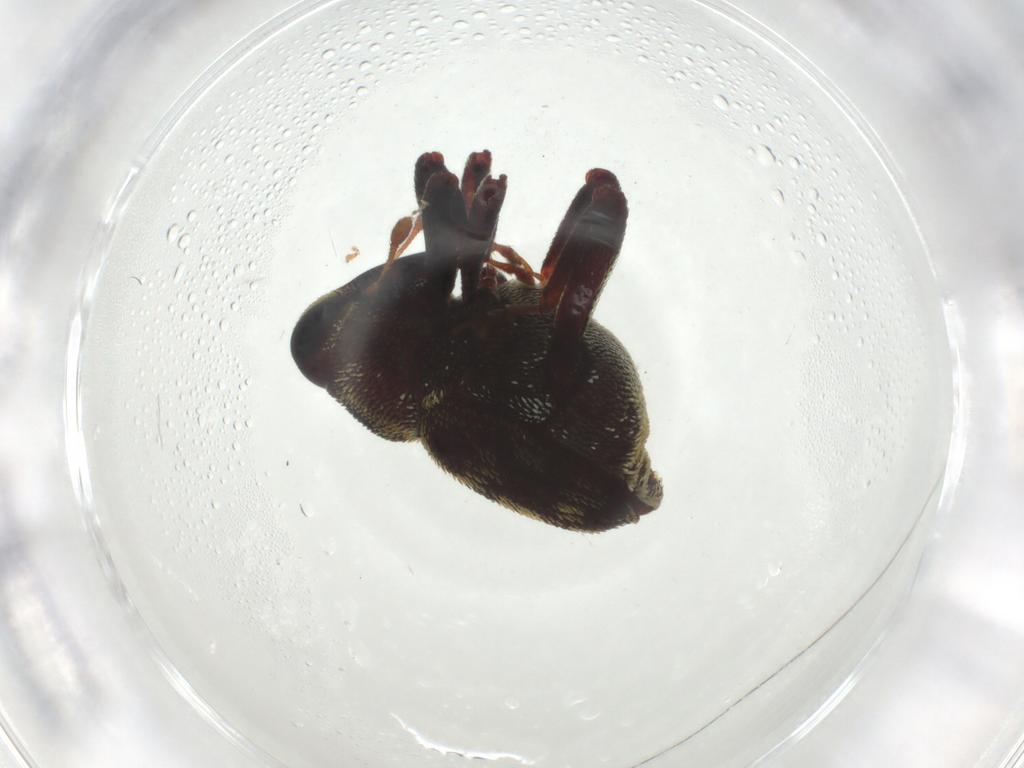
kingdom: Animalia
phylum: Arthropoda
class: Insecta
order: Coleoptera
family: Curculionidae
